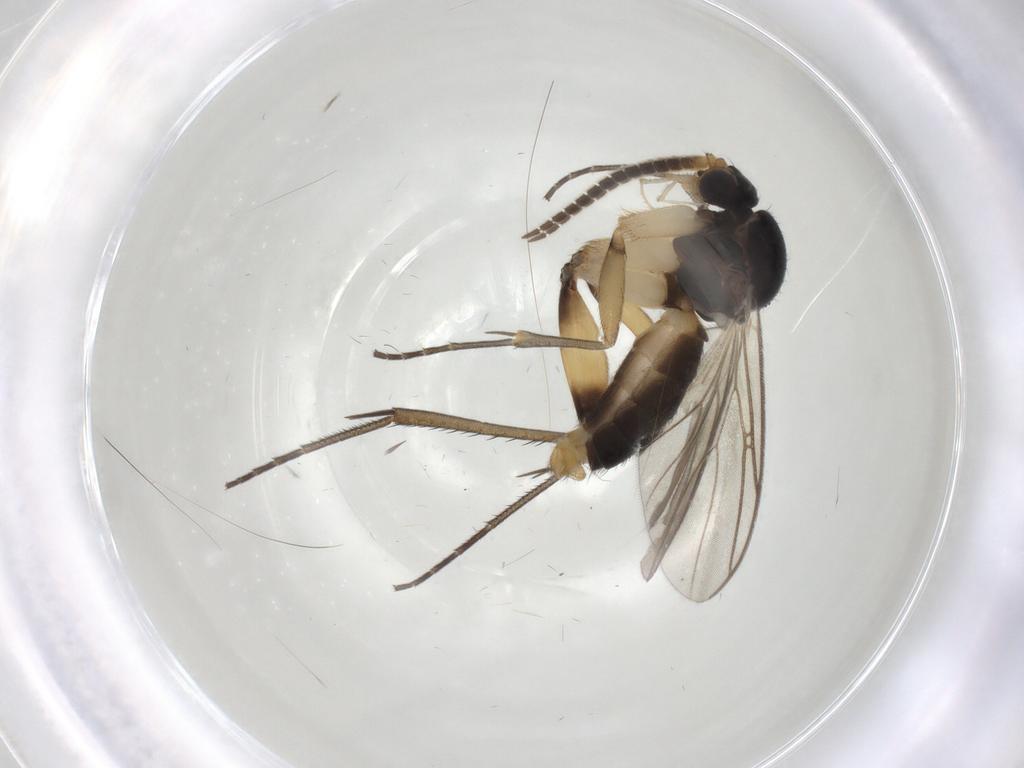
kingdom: Animalia
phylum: Arthropoda
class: Insecta
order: Diptera
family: Mycetophilidae
